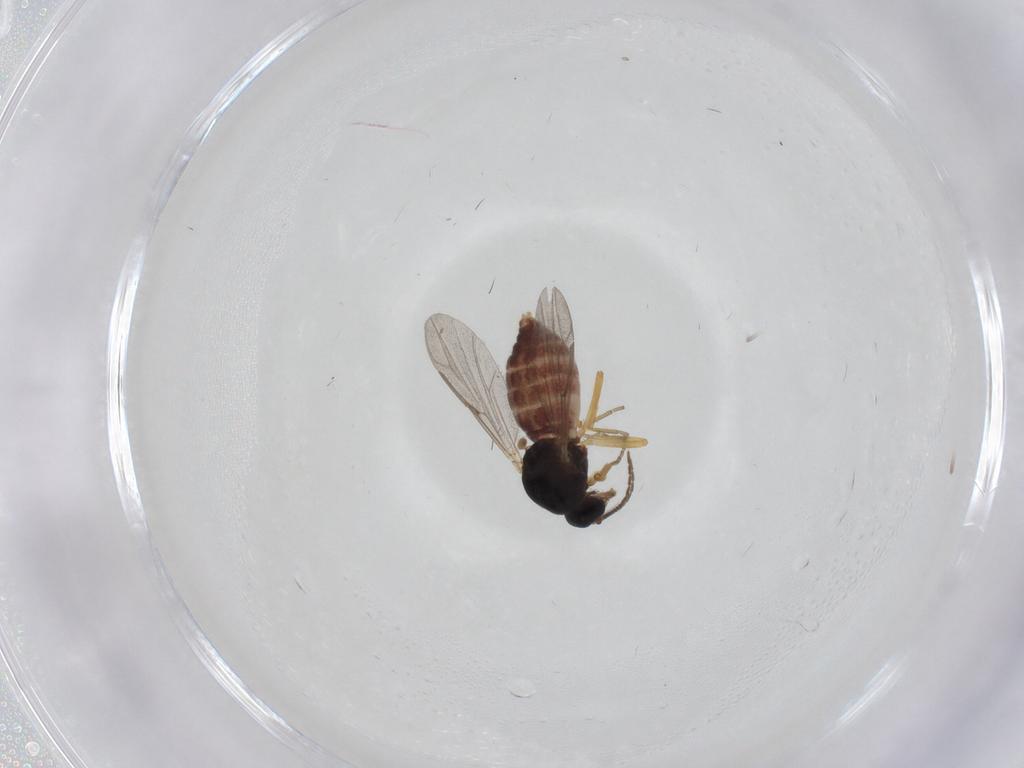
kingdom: Animalia
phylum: Arthropoda
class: Insecta
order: Diptera
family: Ceratopogonidae
